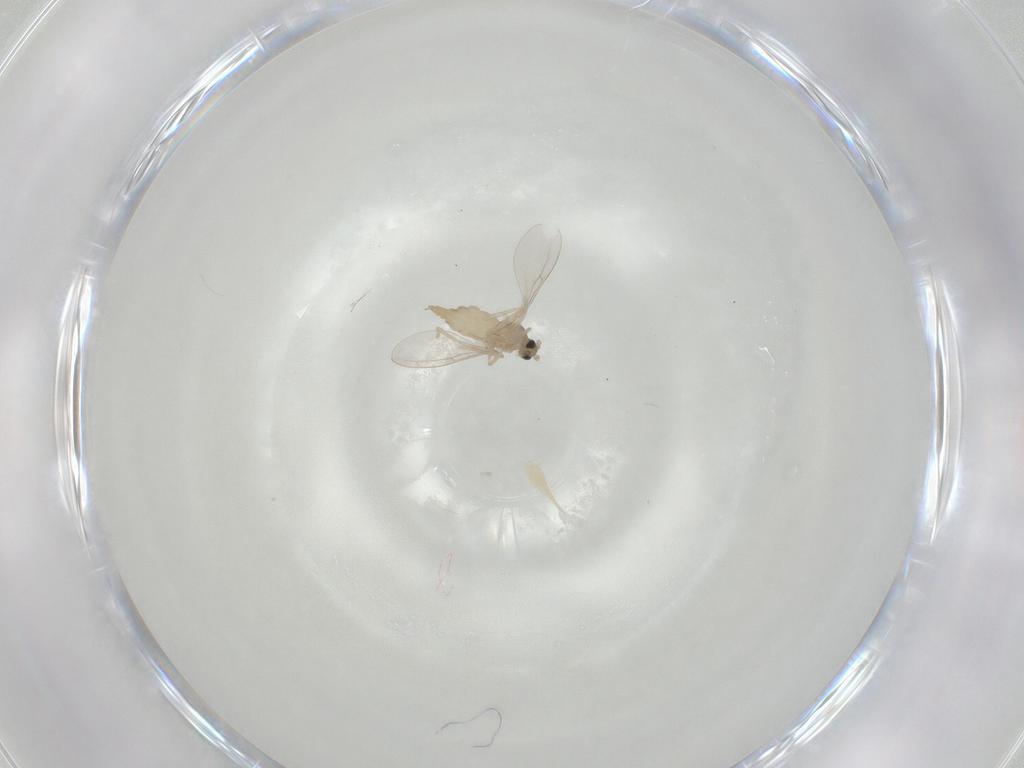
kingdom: Animalia
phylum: Arthropoda
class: Insecta
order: Diptera
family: Cecidomyiidae
